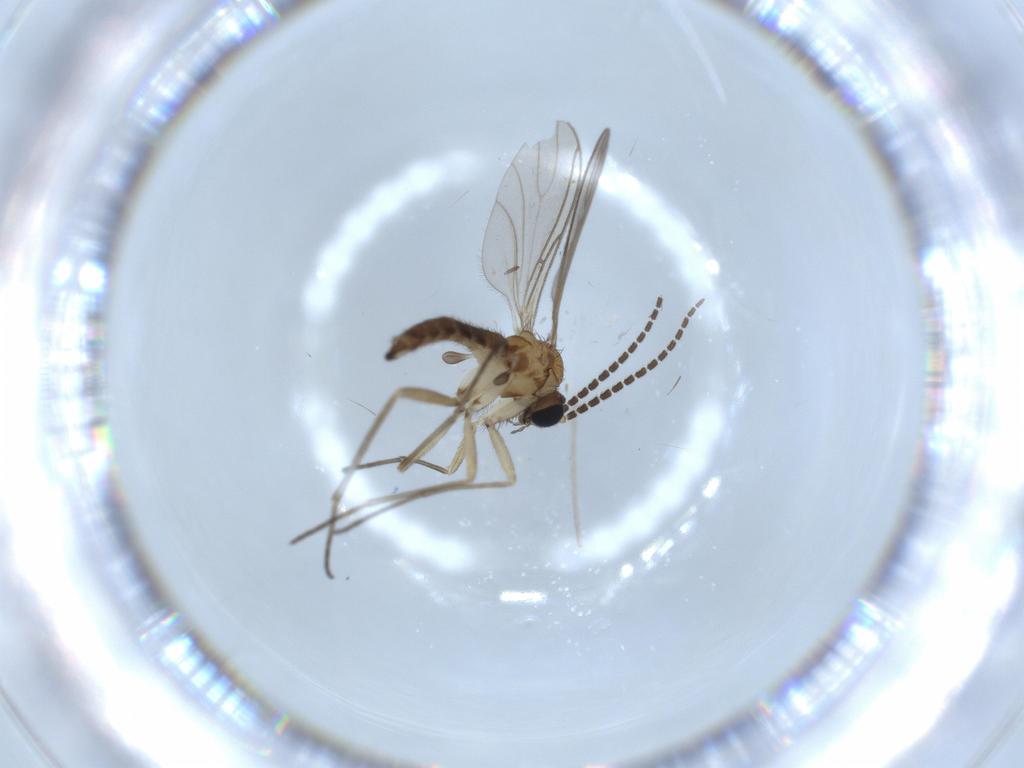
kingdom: Animalia
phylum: Arthropoda
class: Insecta
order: Diptera
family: Sciaridae
